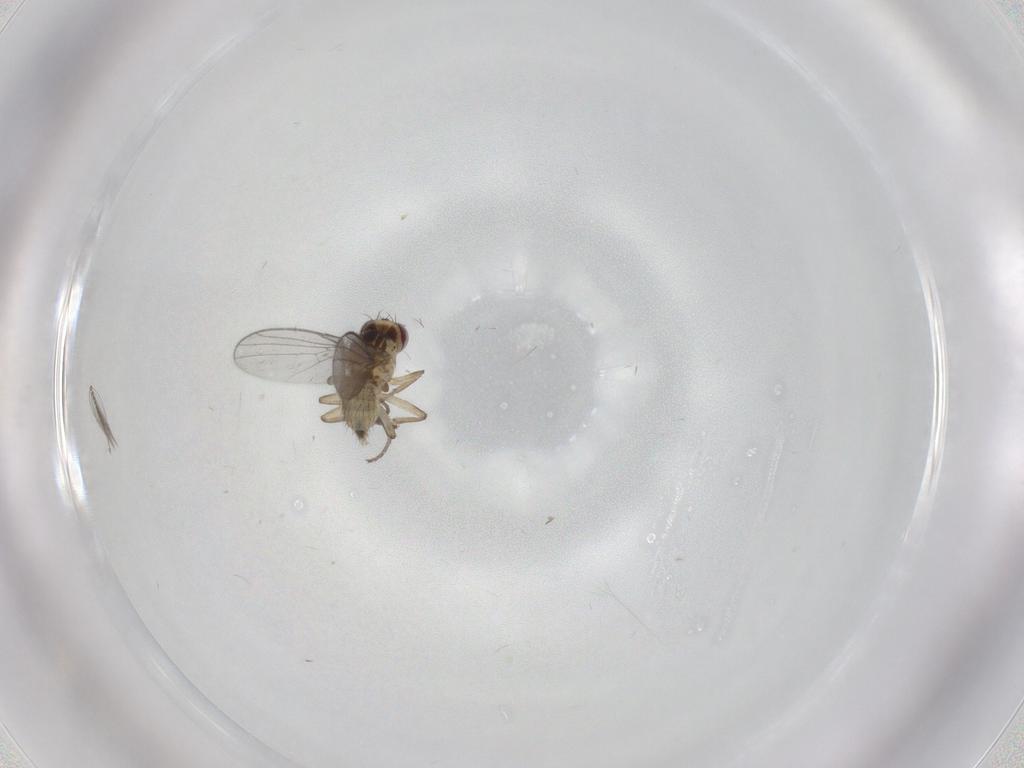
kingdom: Animalia
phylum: Arthropoda
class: Insecta
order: Diptera
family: Agromyzidae
